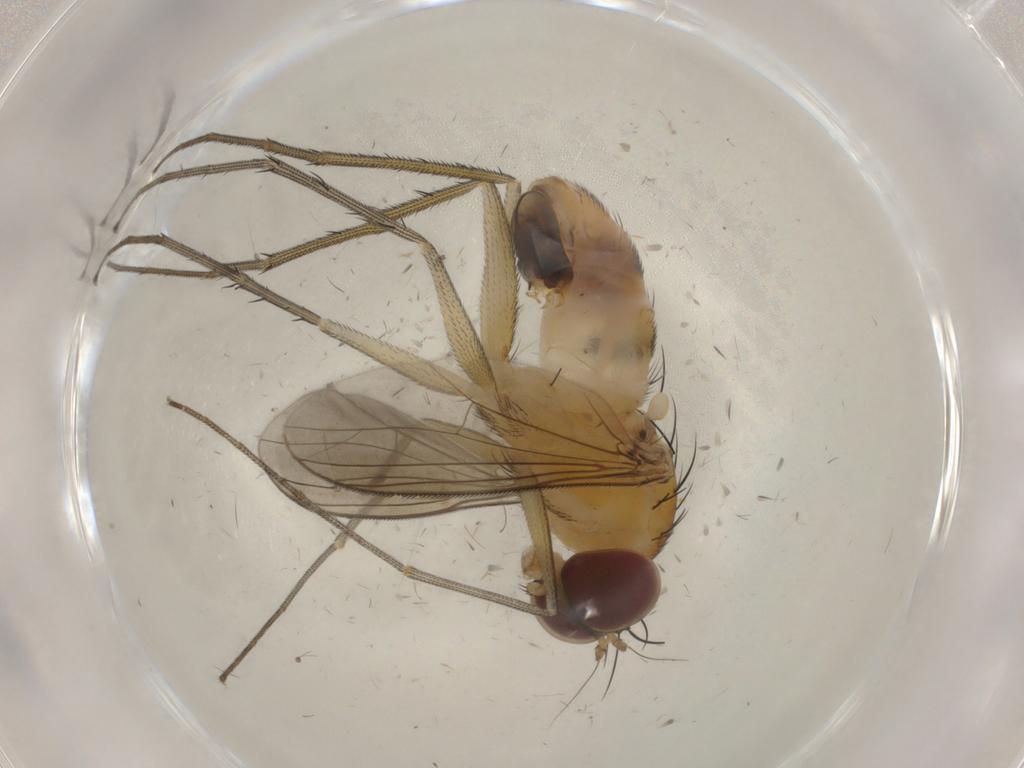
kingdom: Animalia
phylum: Arthropoda
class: Insecta
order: Diptera
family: Dolichopodidae
